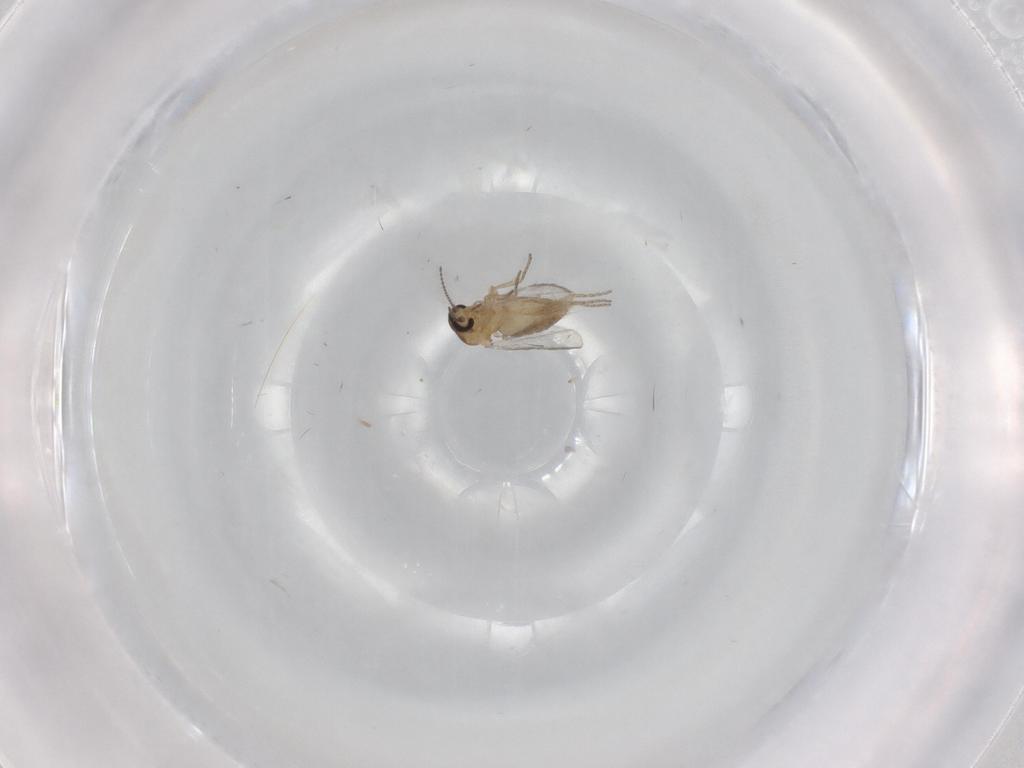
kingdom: Animalia
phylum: Arthropoda
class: Insecta
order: Diptera
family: Ceratopogonidae
